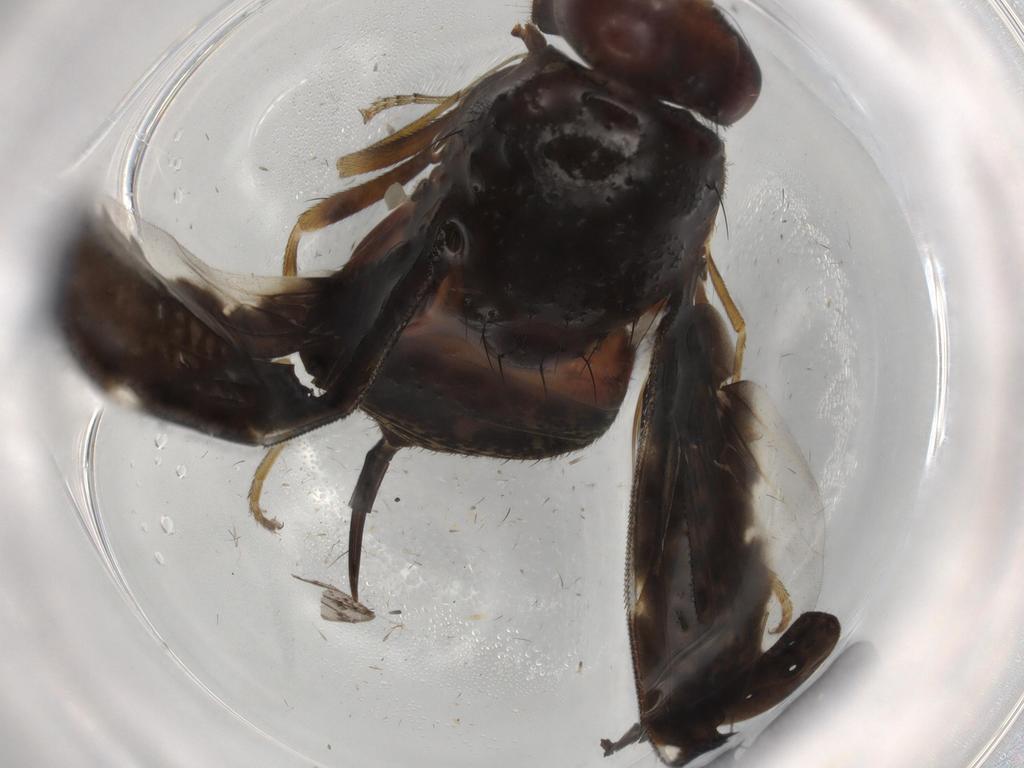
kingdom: Animalia
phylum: Arthropoda
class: Insecta
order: Diptera
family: Ulidiidae
